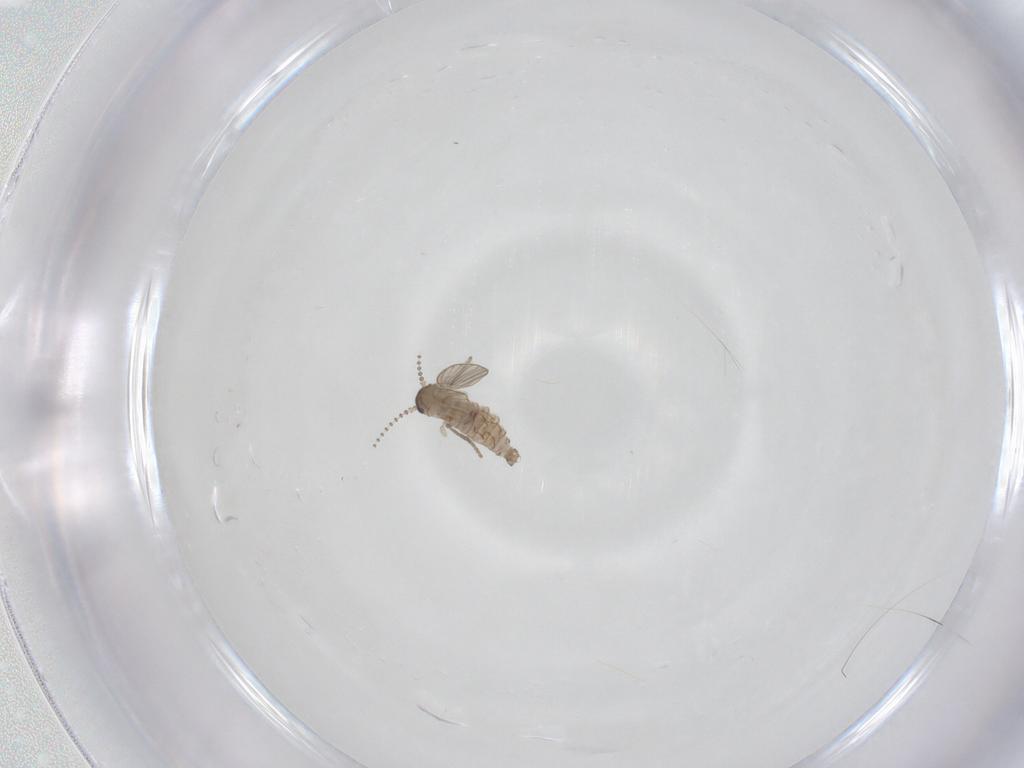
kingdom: Animalia
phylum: Arthropoda
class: Insecta
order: Diptera
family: Psychodidae
